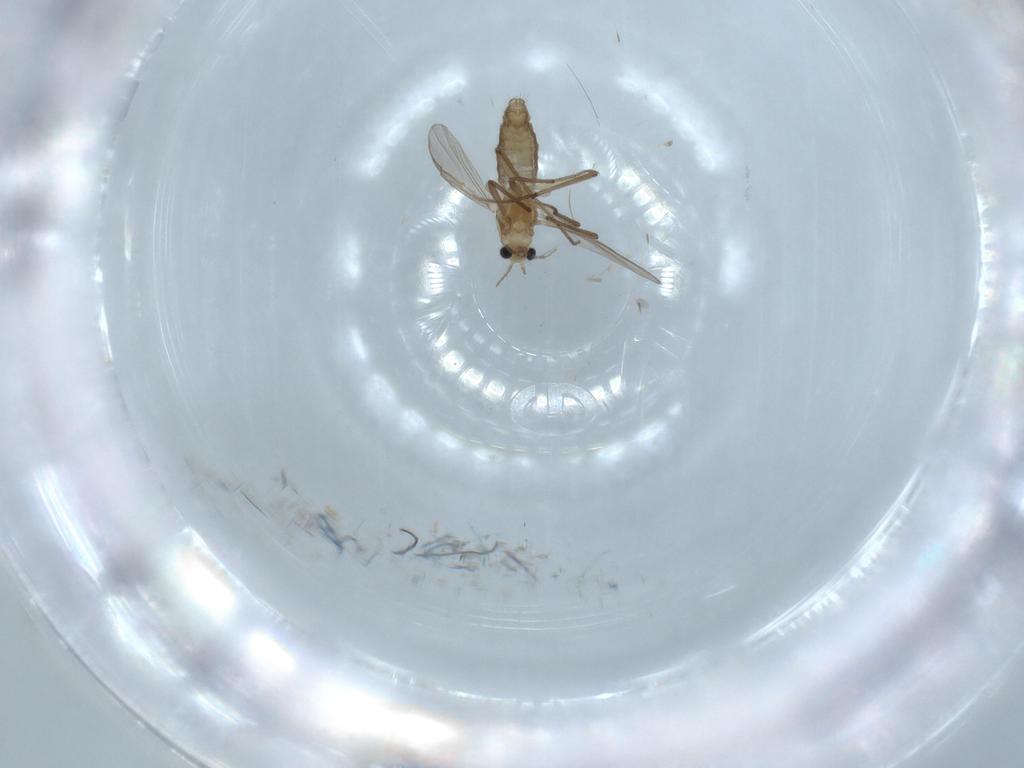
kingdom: Animalia
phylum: Arthropoda
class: Insecta
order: Diptera
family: Chironomidae
